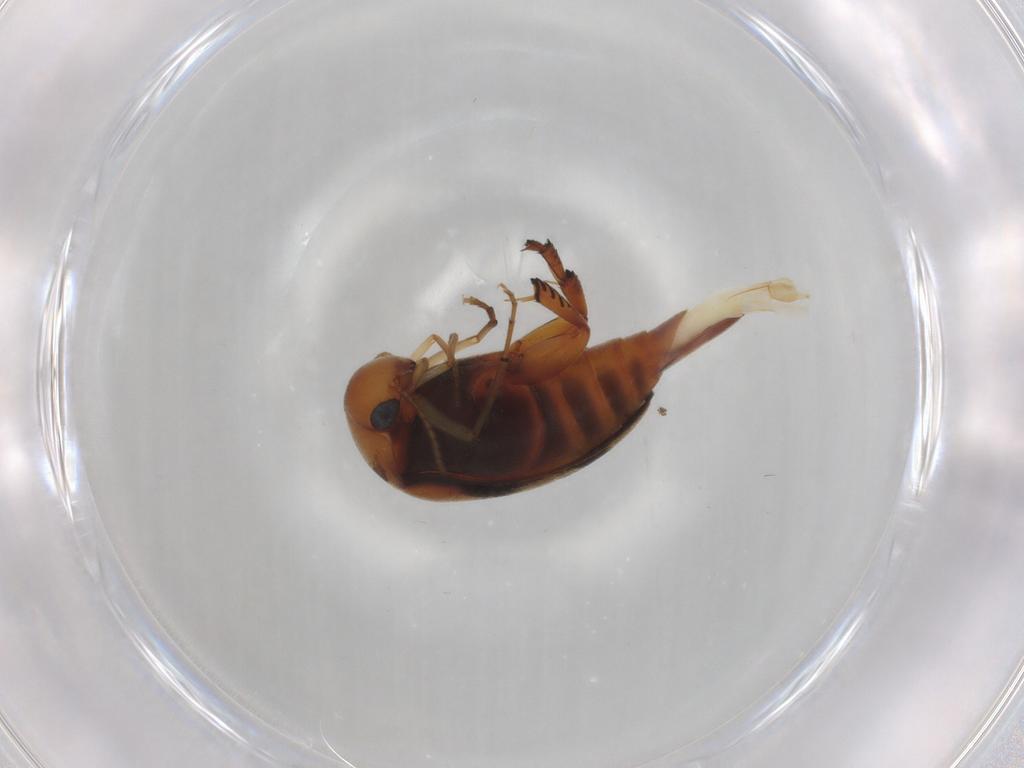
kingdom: Animalia
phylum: Arthropoda
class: Insecta
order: Coleoptera
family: Mordellidae
